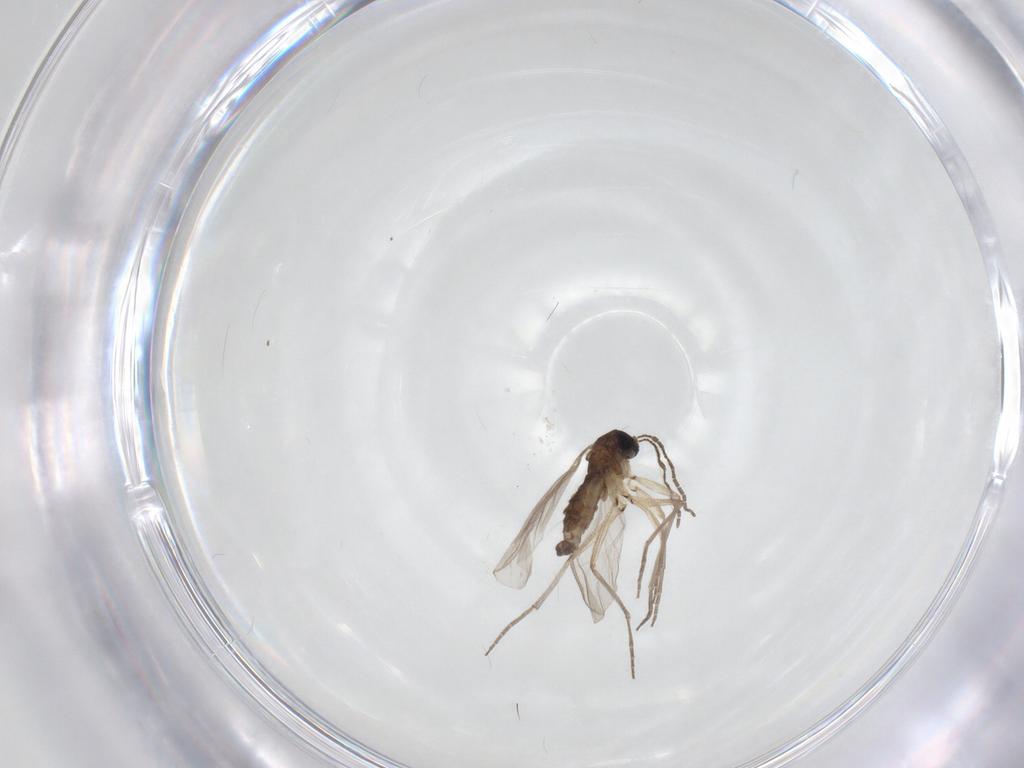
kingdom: Animalia
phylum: Arthropoda
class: Insecta
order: Diptera
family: Sciaridae
